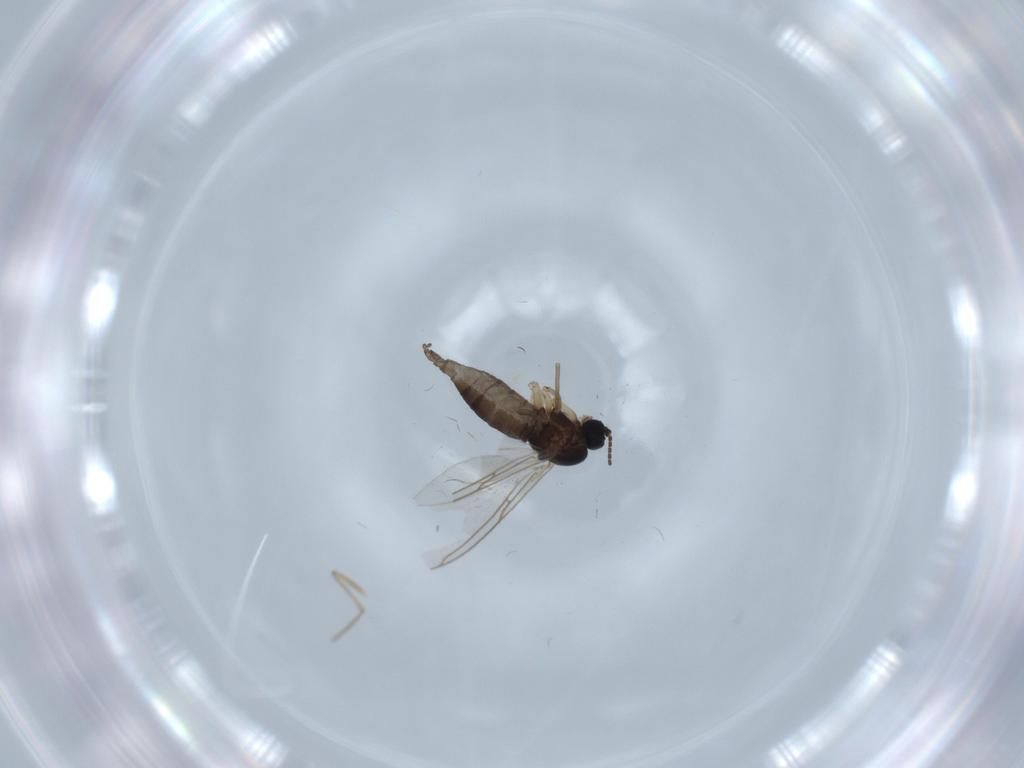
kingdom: Animalia
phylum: Arthropoda
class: Insecta
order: Diptera
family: Sciaridae
